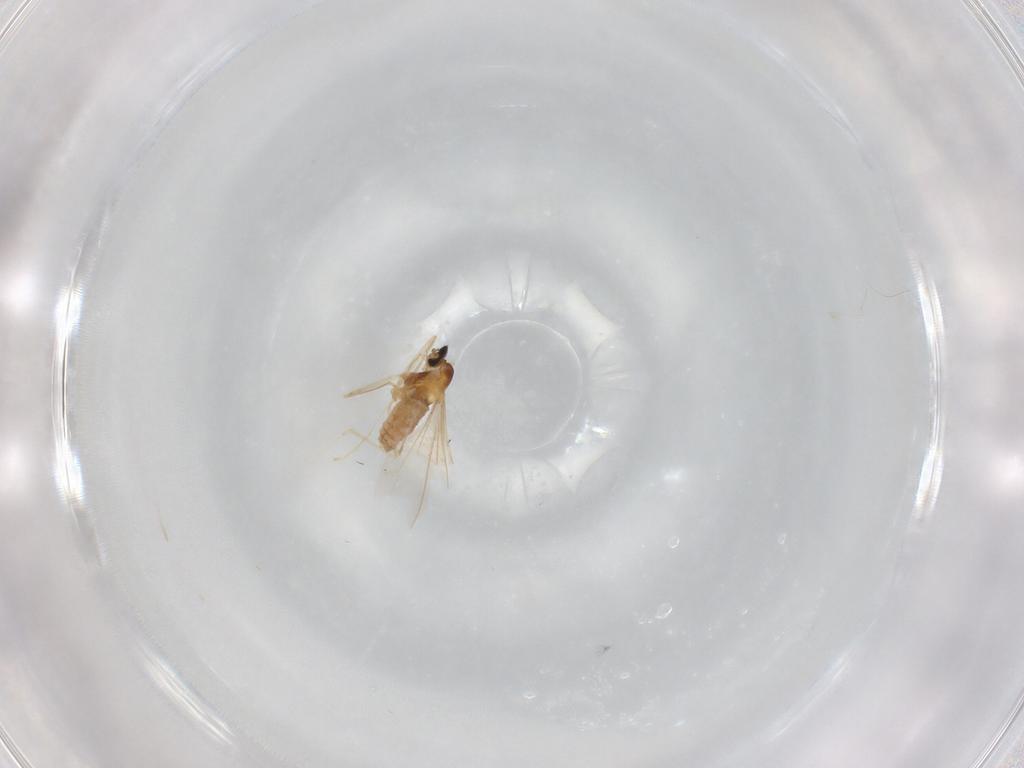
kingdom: Animalia
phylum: Arthropoda
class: Insecta
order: Diptera
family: Cecidomyiidae
